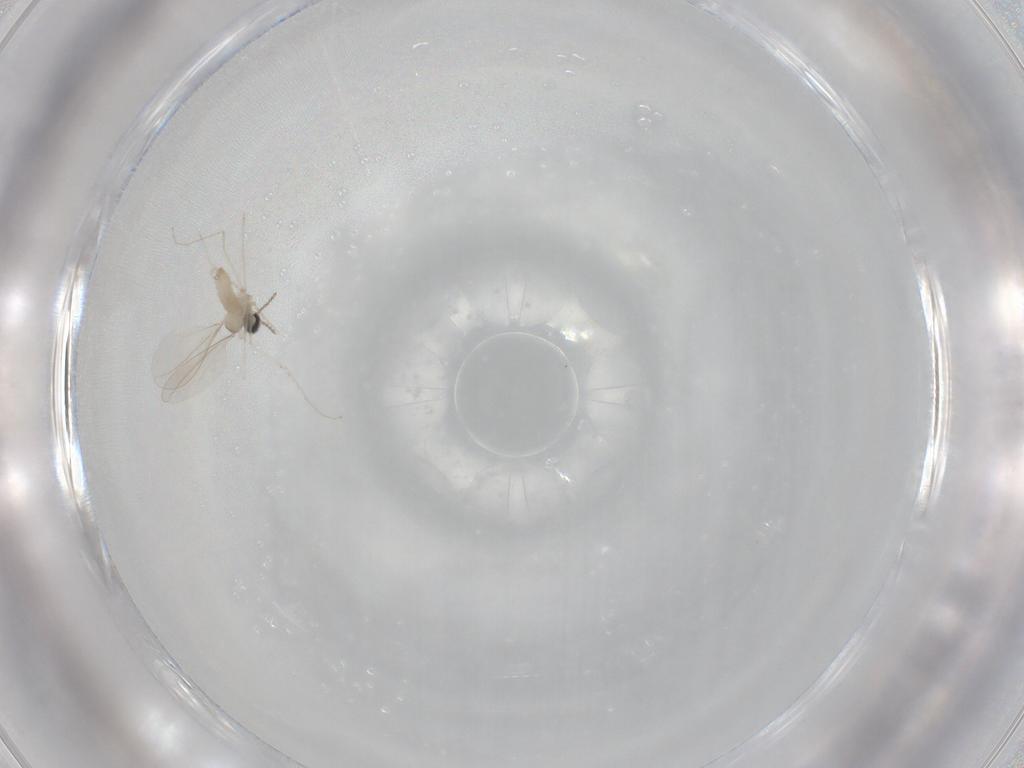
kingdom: Animalia
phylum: Arthropoda
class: Insecta
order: Diptera
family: Cecidomyiidae
